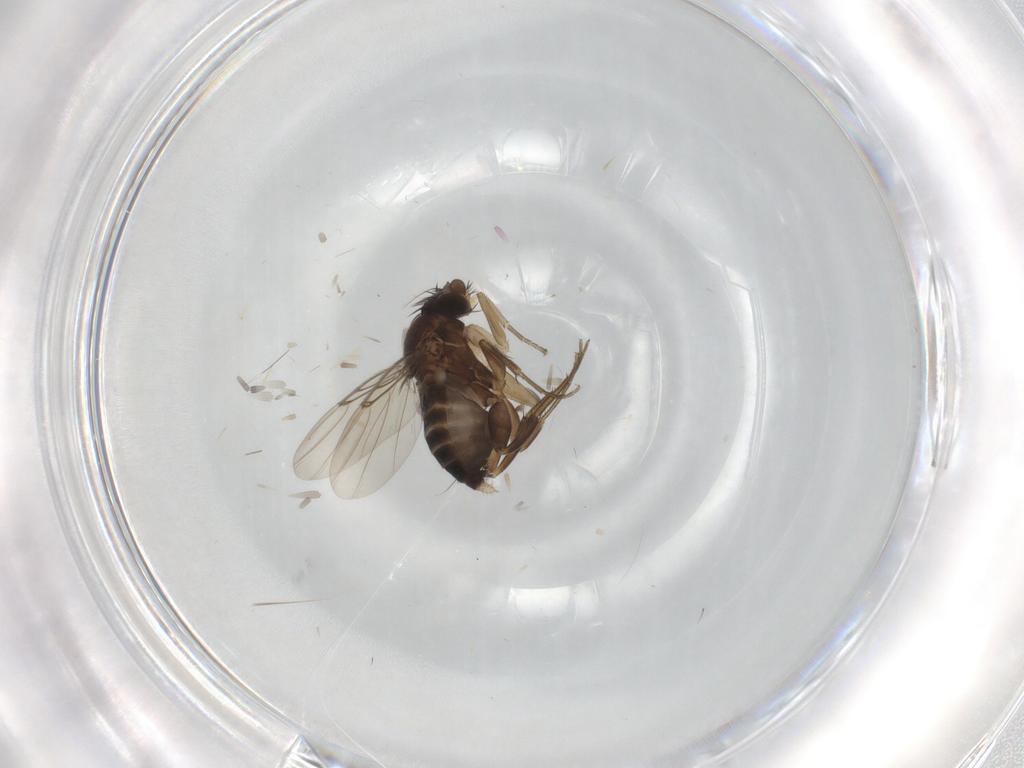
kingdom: Animalia
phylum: Arthropoda
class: Insecta
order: Diptera
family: Phoridae
